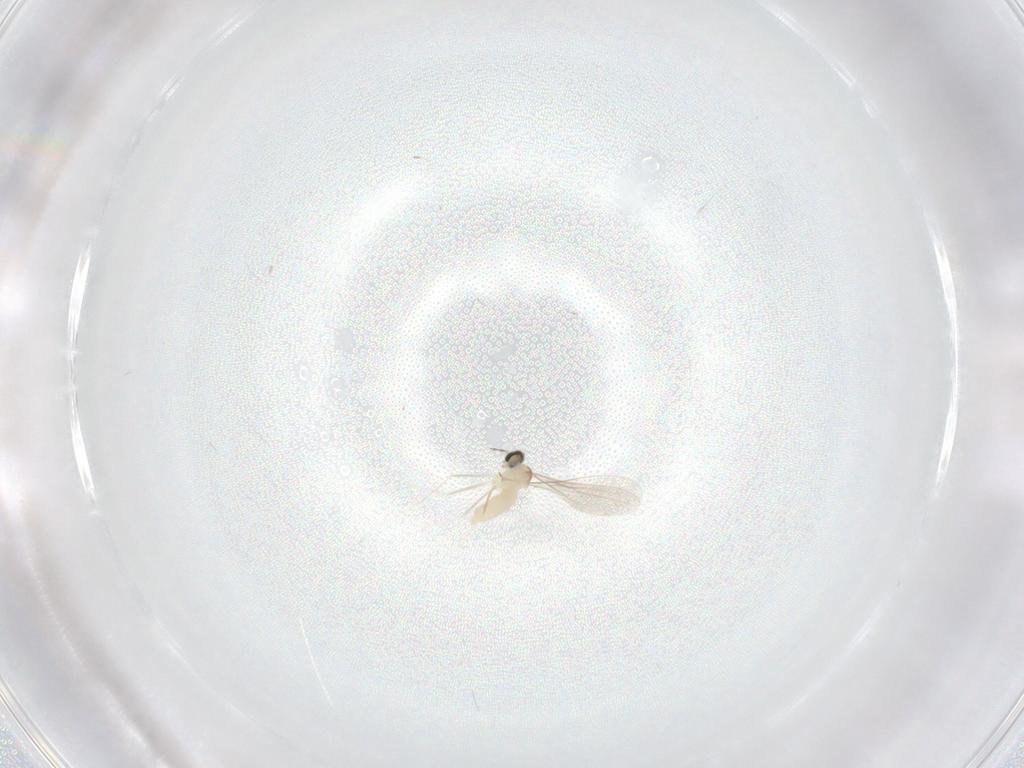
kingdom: Animalia
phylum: Arthropoda
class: Insecta
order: Diptera
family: Cecidomyiidae
